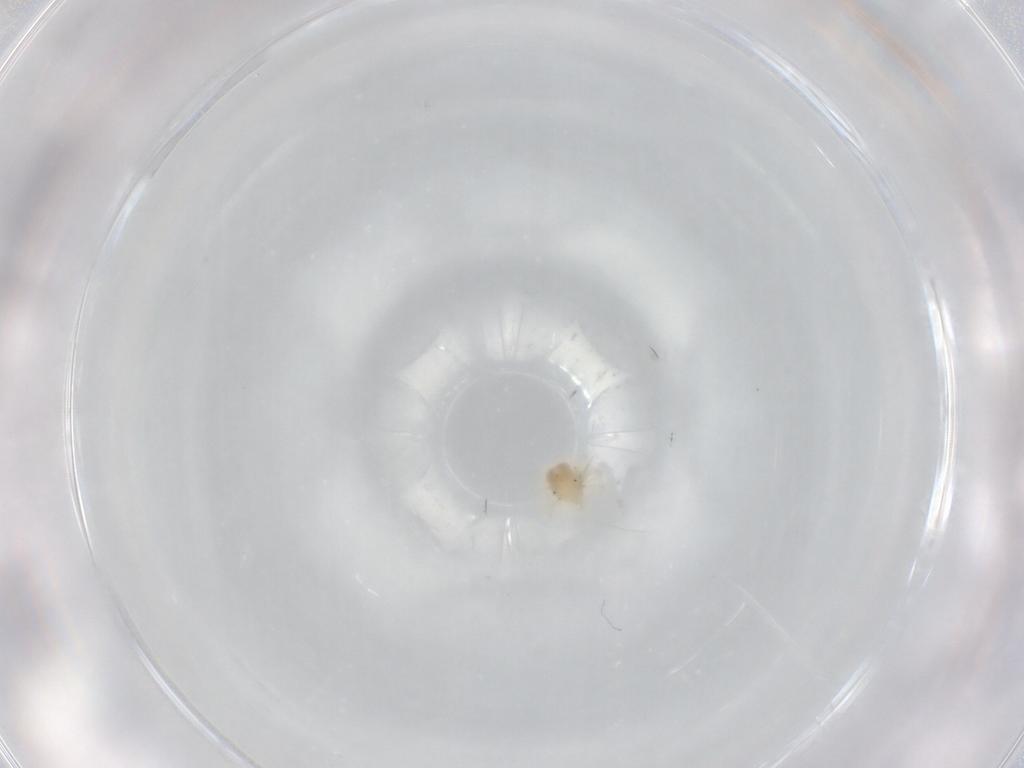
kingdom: Animalia
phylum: Arthropoda
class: Arachnida
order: Trombidiformes
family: Anystidae
